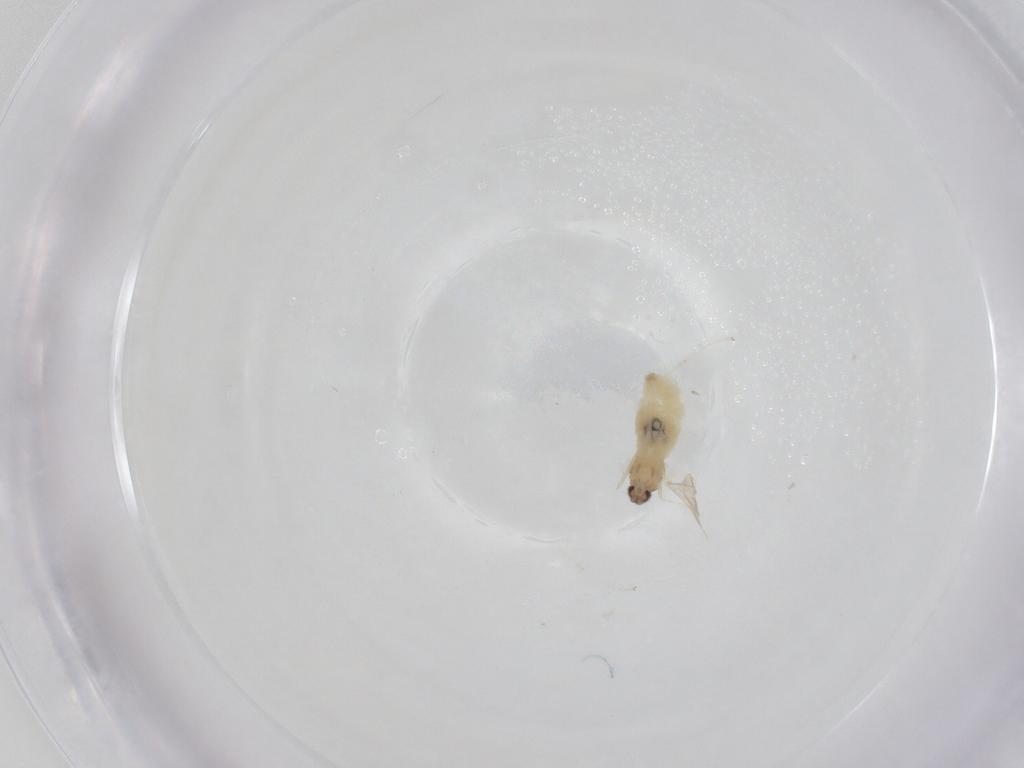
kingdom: Animalia
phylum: Arthropoda
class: Insecta
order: Diptera
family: Cecidomyiidae
